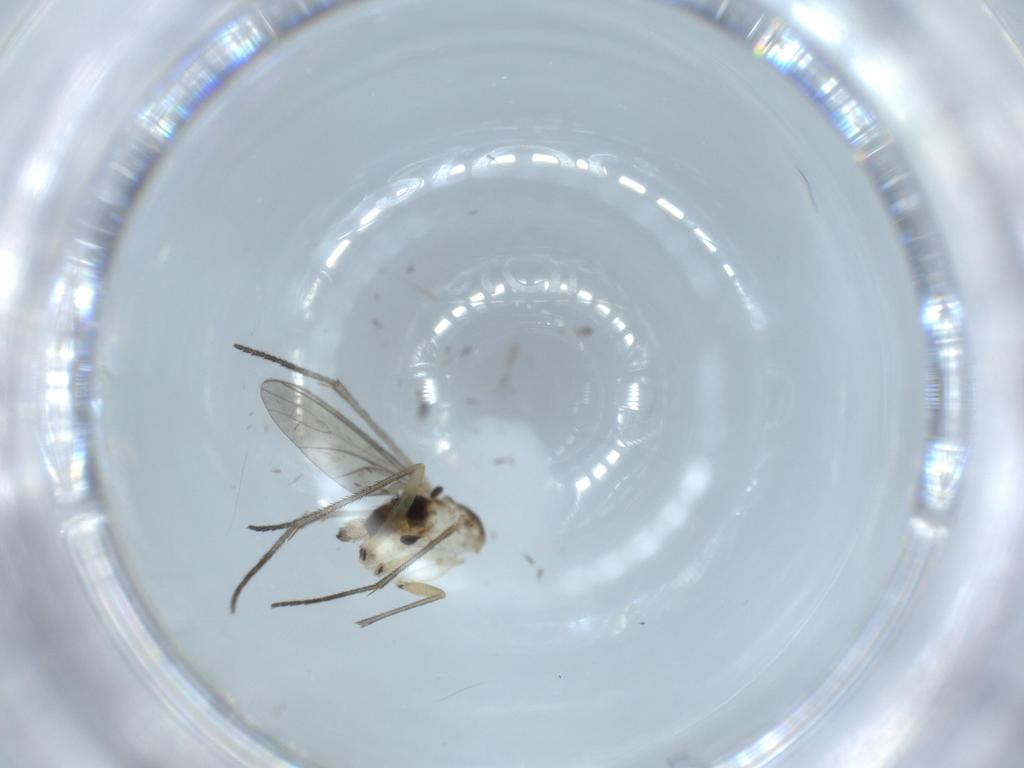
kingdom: Animalia
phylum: Arthropoda
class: Insecta
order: Diptera
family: Sciaridae
